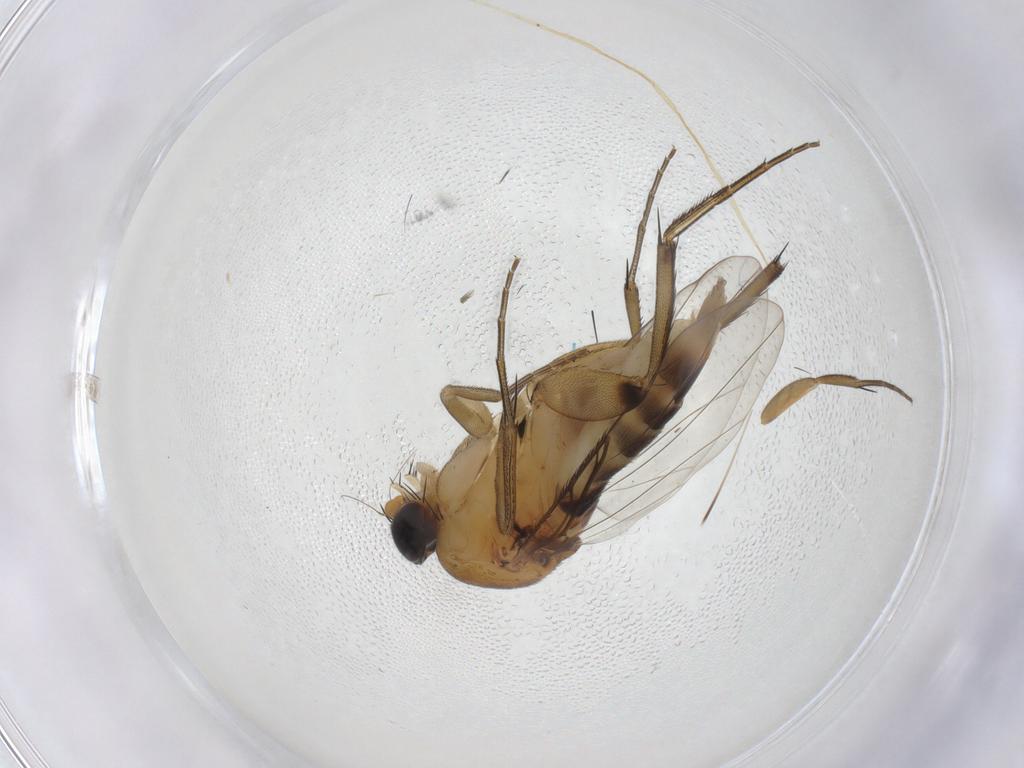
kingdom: Animalia
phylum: Arthropoda
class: Insecta
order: Diptera
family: Phoridae
